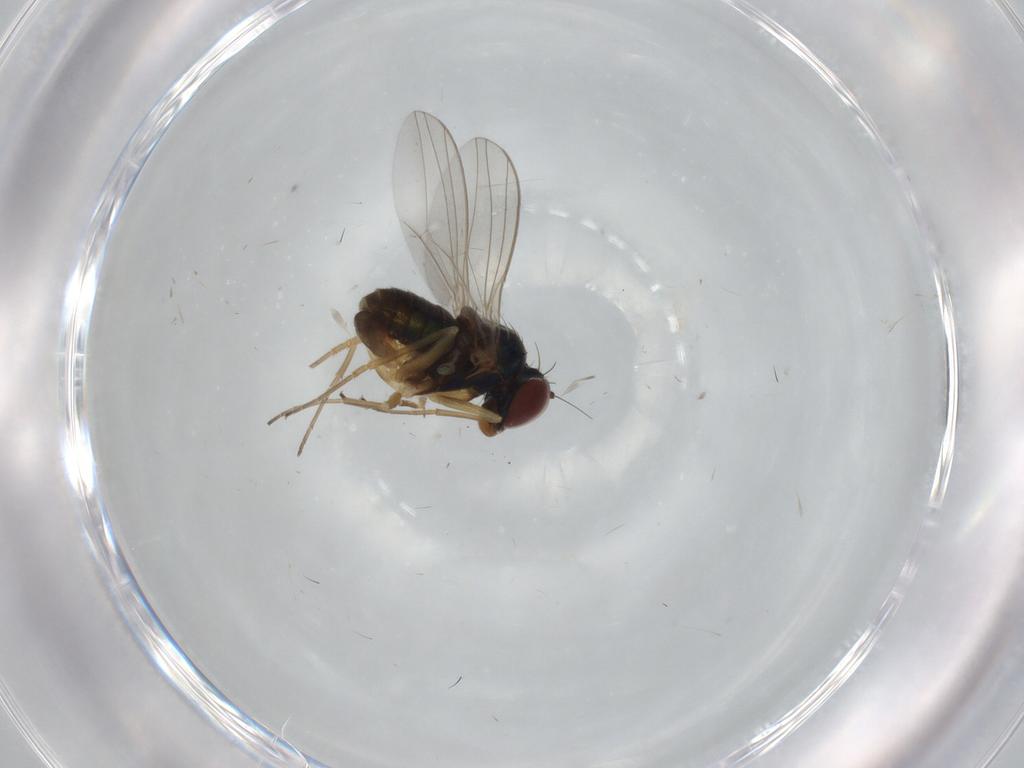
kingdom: Animalia
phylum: Arthropoda
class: Insecta
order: Diptera
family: Dolichopodidae
